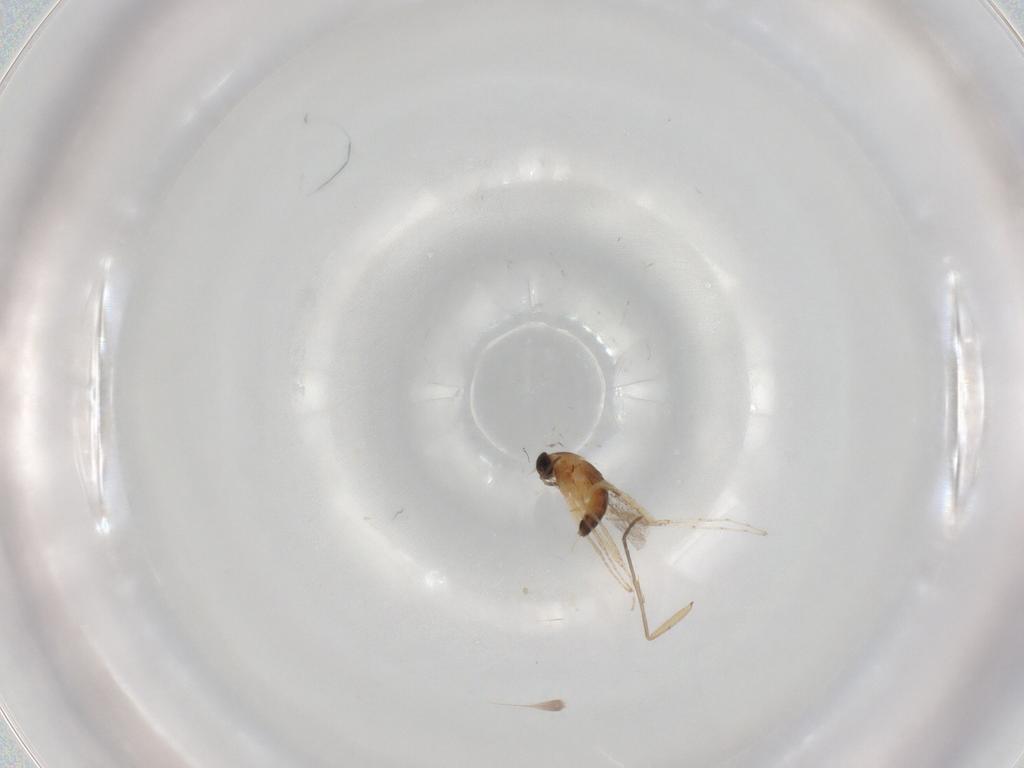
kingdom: Animalia
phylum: Arthropoda
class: Insecta
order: Diptera
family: Sciaridae
